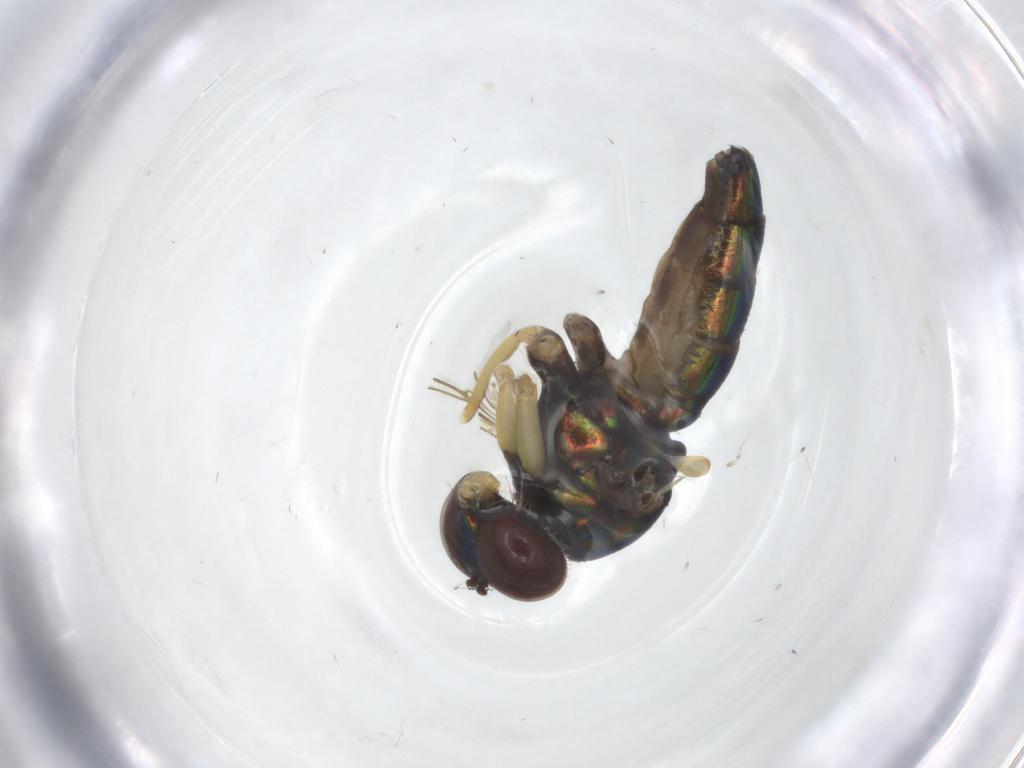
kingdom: Animalia
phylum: Arthropoda
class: Insecta
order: Diptera
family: Dolichopodidae
